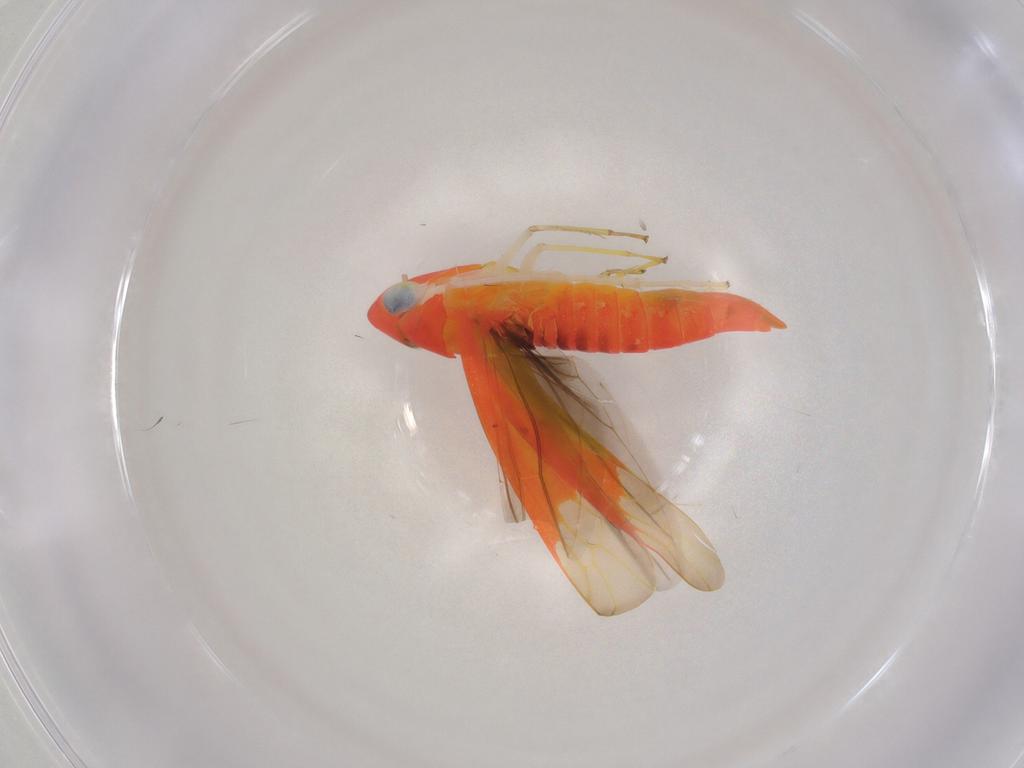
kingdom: Animalia
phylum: Arthropoda
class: Insecta
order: Hemiptera
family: Cicadellidae
